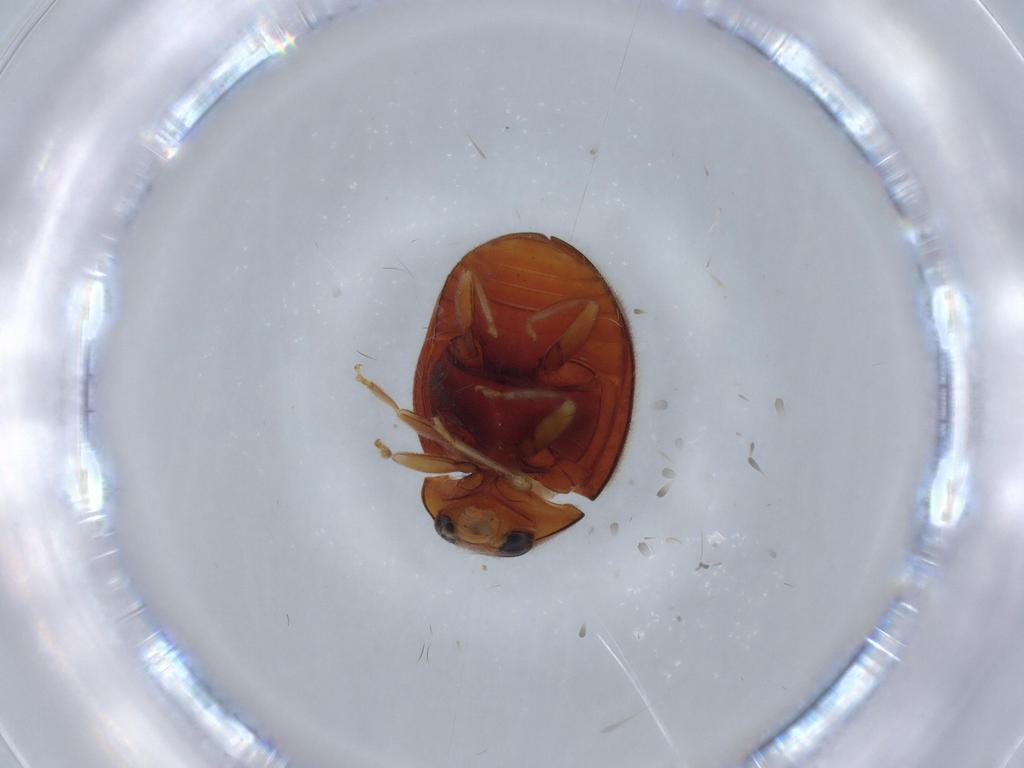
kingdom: Animalia
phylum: Arthropoda
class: Insecta
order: Coleoptera
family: Coccinellidae
